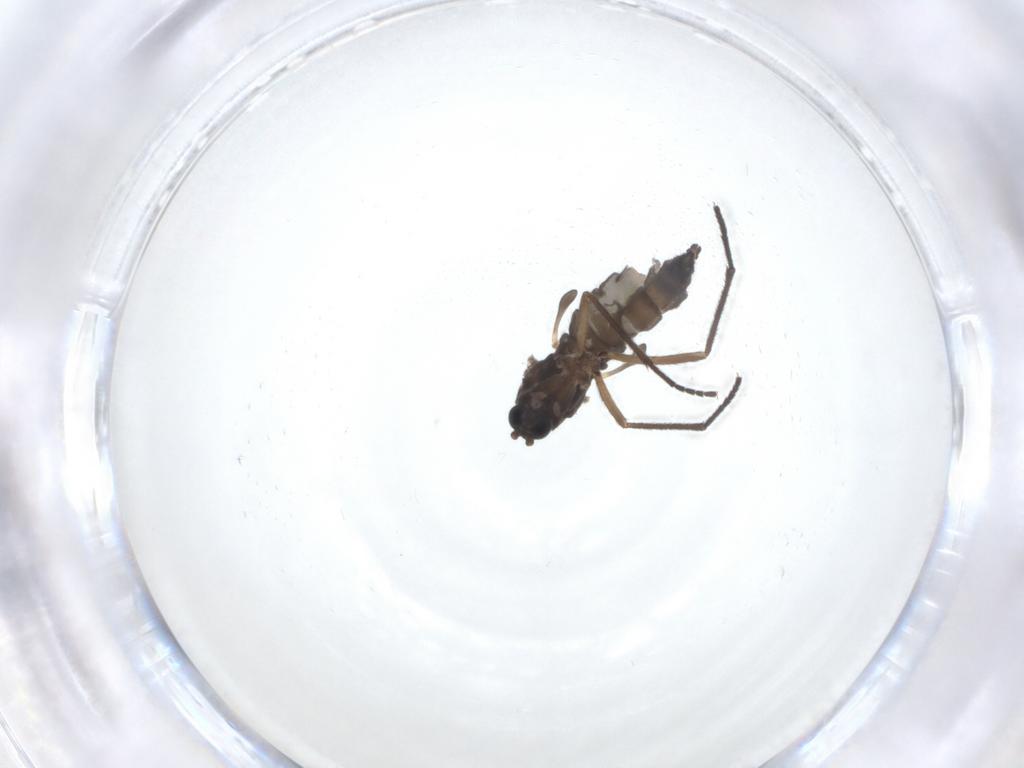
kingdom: Animalia
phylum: Arthropoda
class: Insecta
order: Diptera
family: Sciaridae
